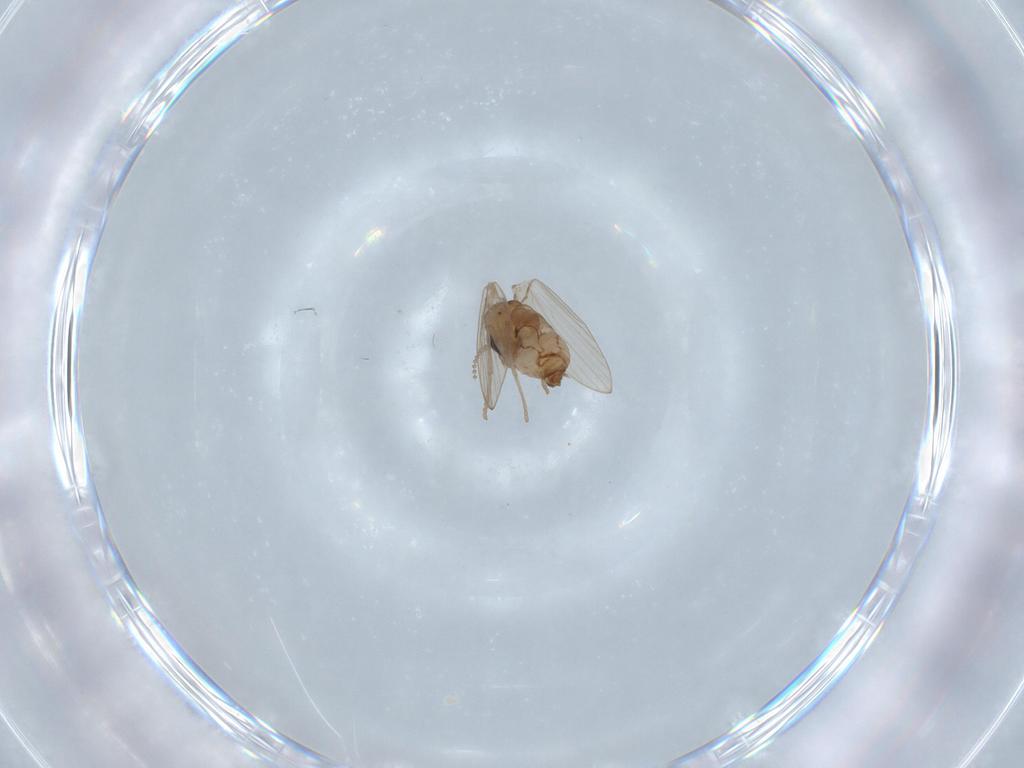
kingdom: Animalia
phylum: Arthropoda
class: Insecta
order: Diptera
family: Psychodidae
